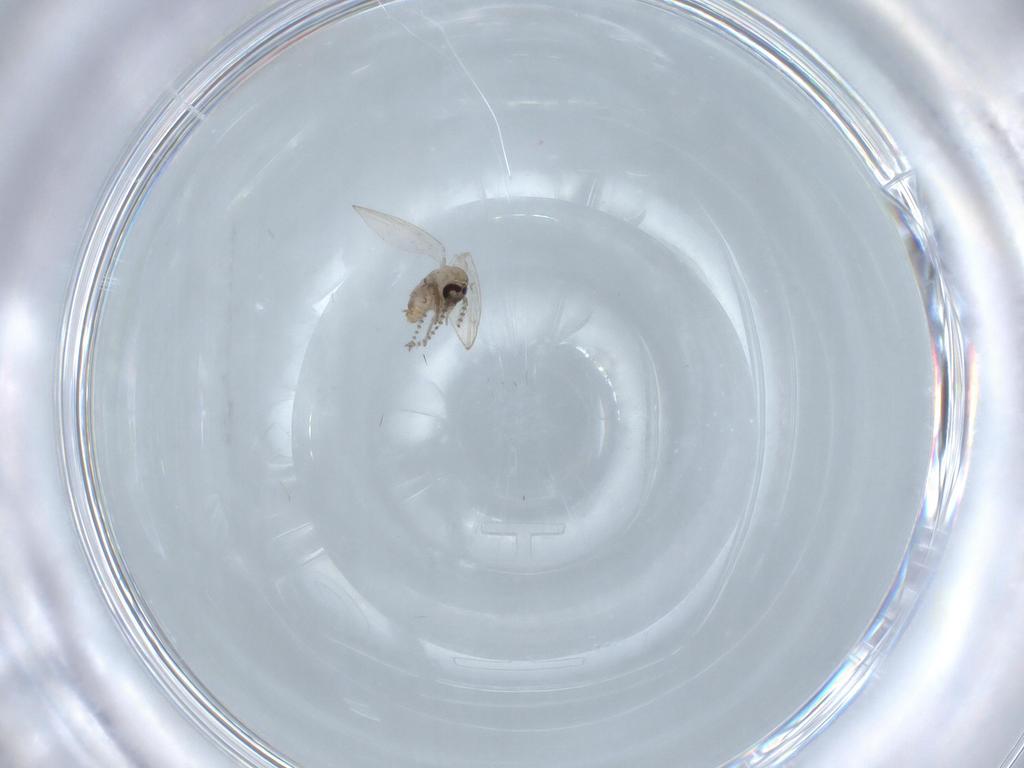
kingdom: Animalia
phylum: Arthropoda
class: Insecta
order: Diptera
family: Psychodidae
